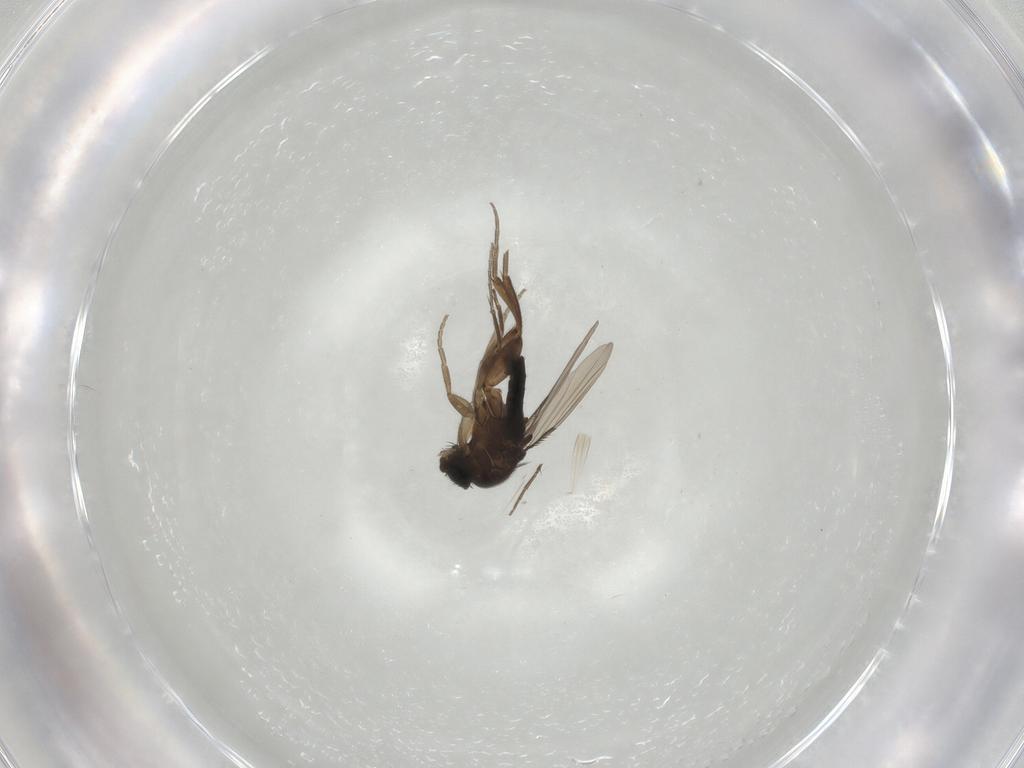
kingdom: Animalia
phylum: Arthropoda
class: Insecta
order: Diptera
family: Phoridae
